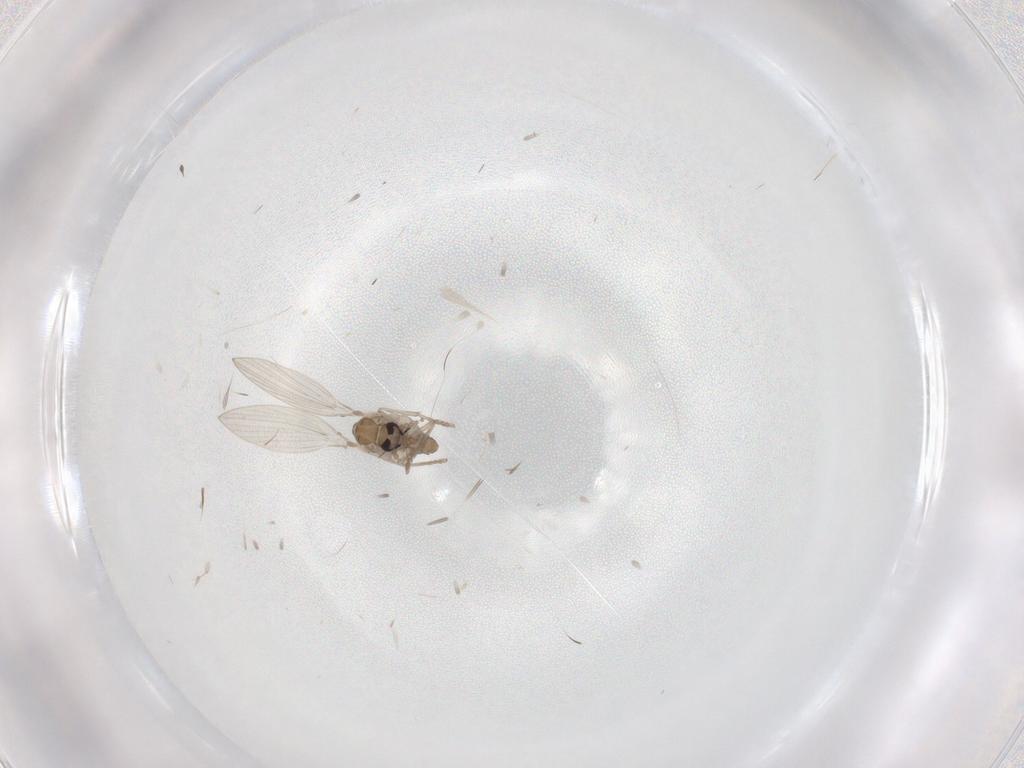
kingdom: Animalia
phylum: Arthropoda
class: Insecta
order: Diptera
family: Psychodidae
